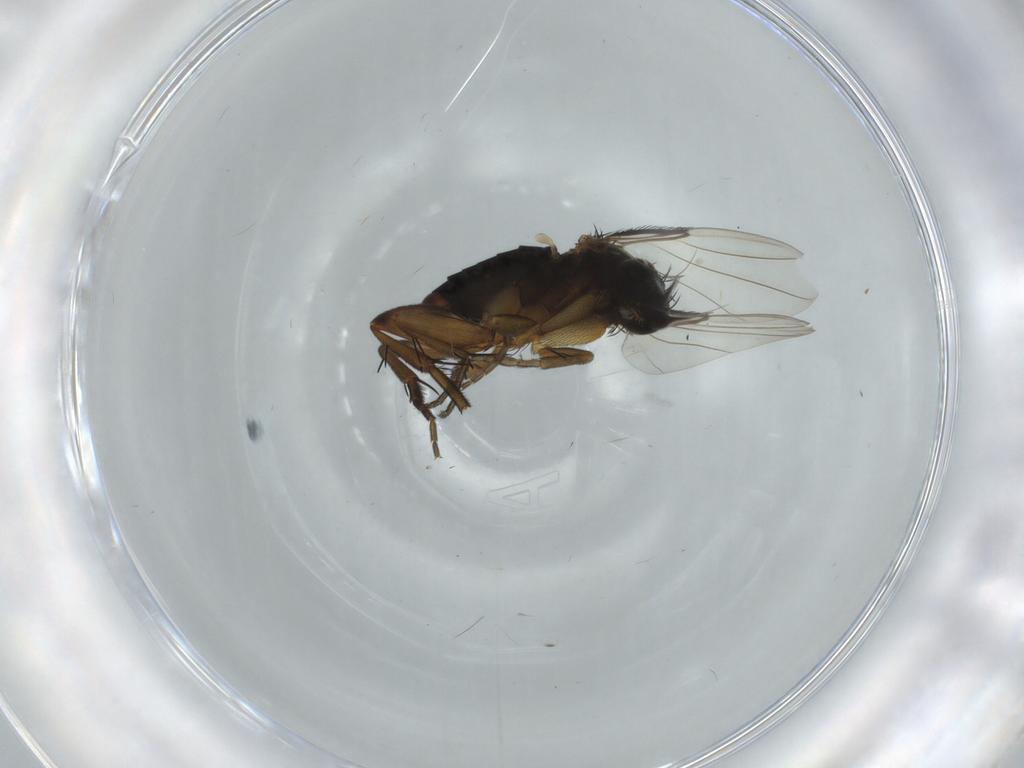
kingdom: Animalia
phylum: Arthropoda
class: Insecta
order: Diptera
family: Phoridae
